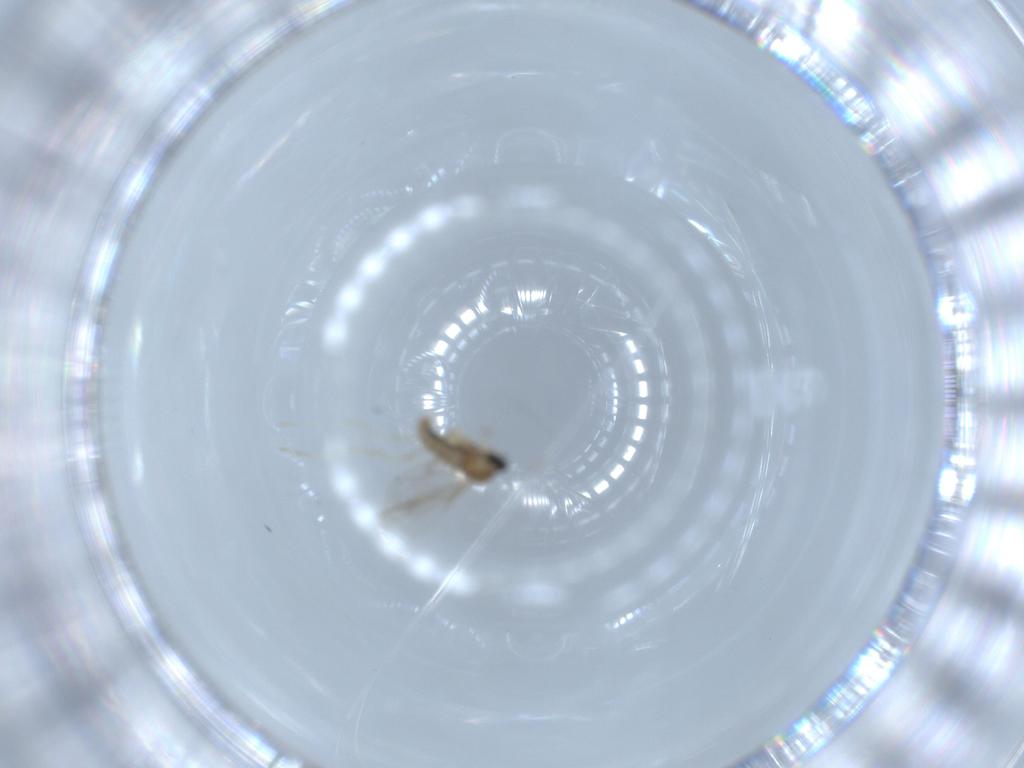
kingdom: Animalia
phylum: Arthropoda
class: Insecta
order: Diptera
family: Cecidomyiidae
